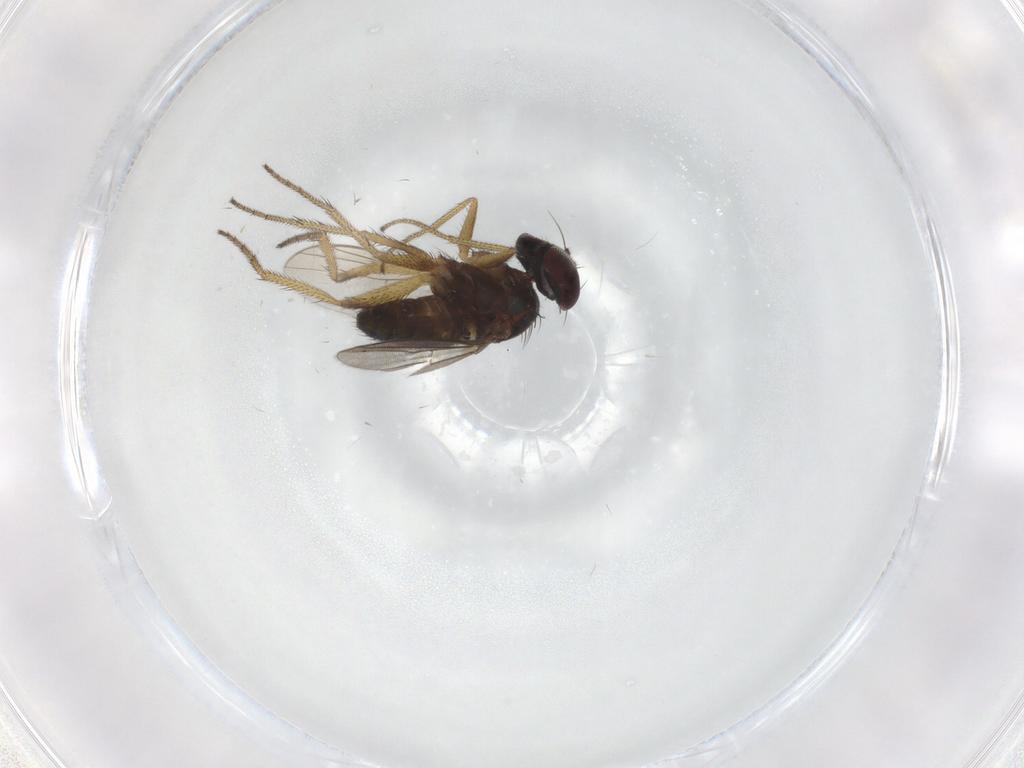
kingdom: Animalia
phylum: Arthropoda
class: Insecta
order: Diptera
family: Dolichopodidae
